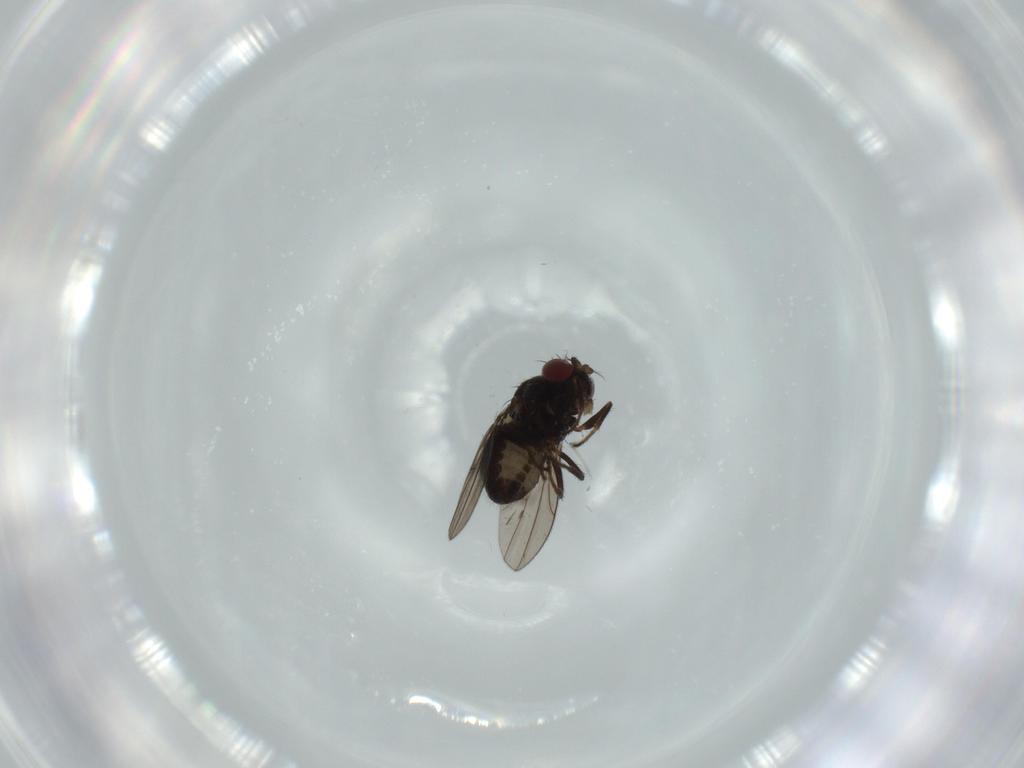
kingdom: Animalia
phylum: Arthropoda
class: Insecta
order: Diptera
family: Ephydridae
